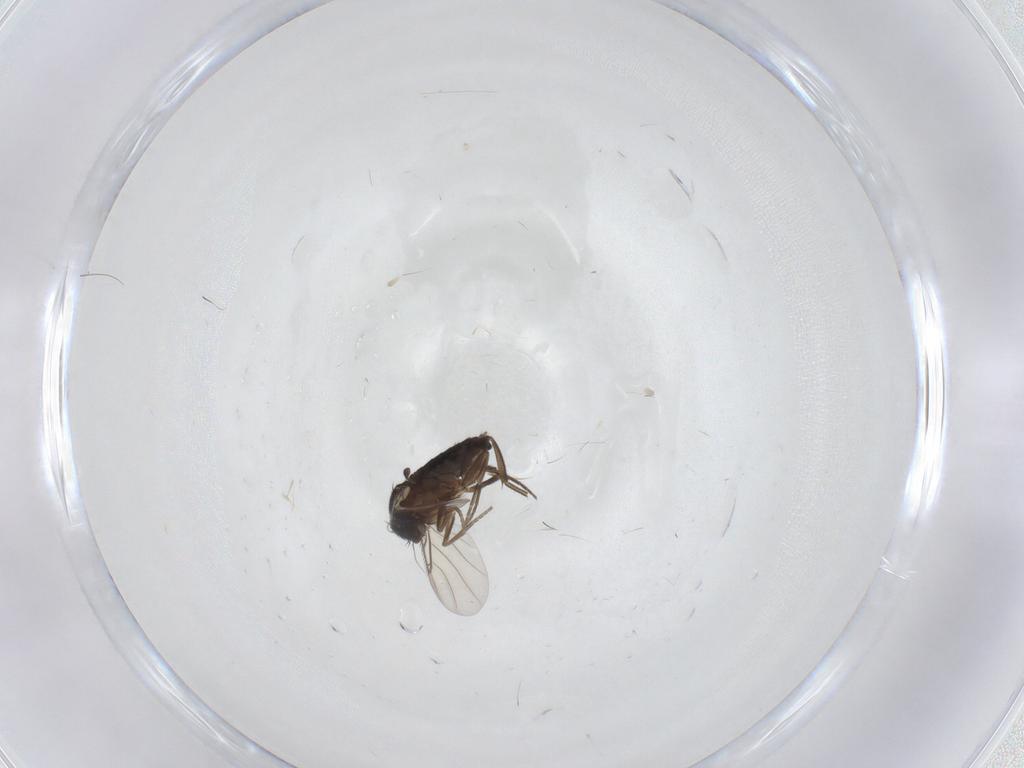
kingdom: Animalia
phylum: Arthropoda
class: Insecta
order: Diptera
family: Phoridae
